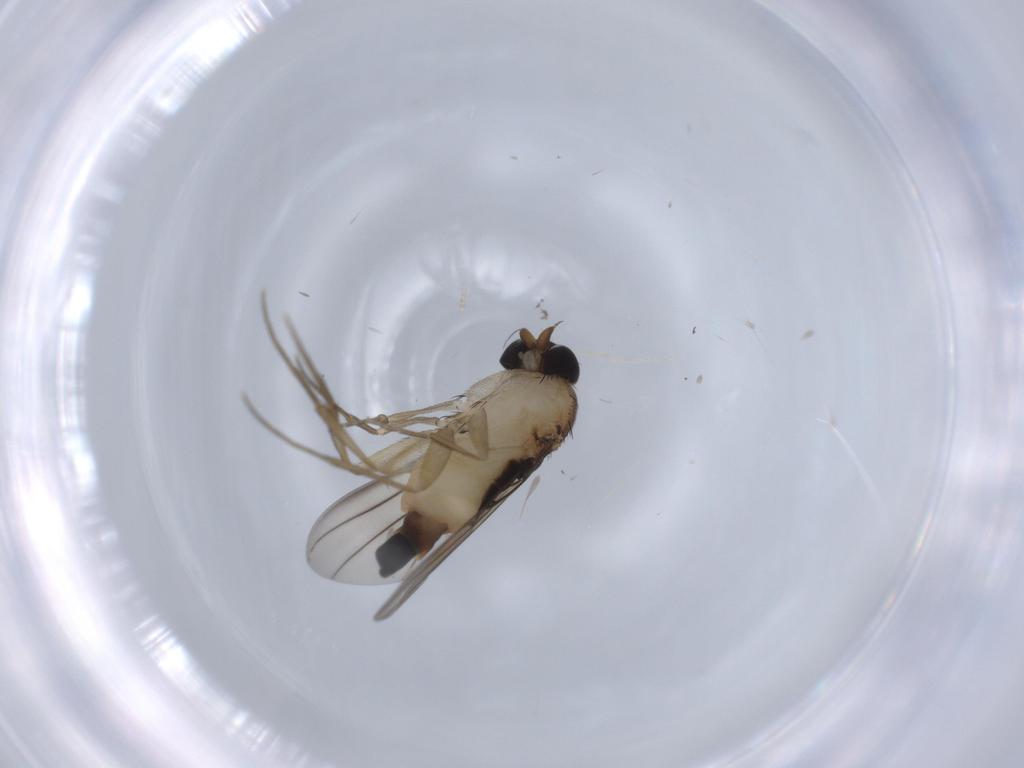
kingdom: Animalia
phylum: Arthropoda
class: Insecta
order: Diptera
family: Phoridae
